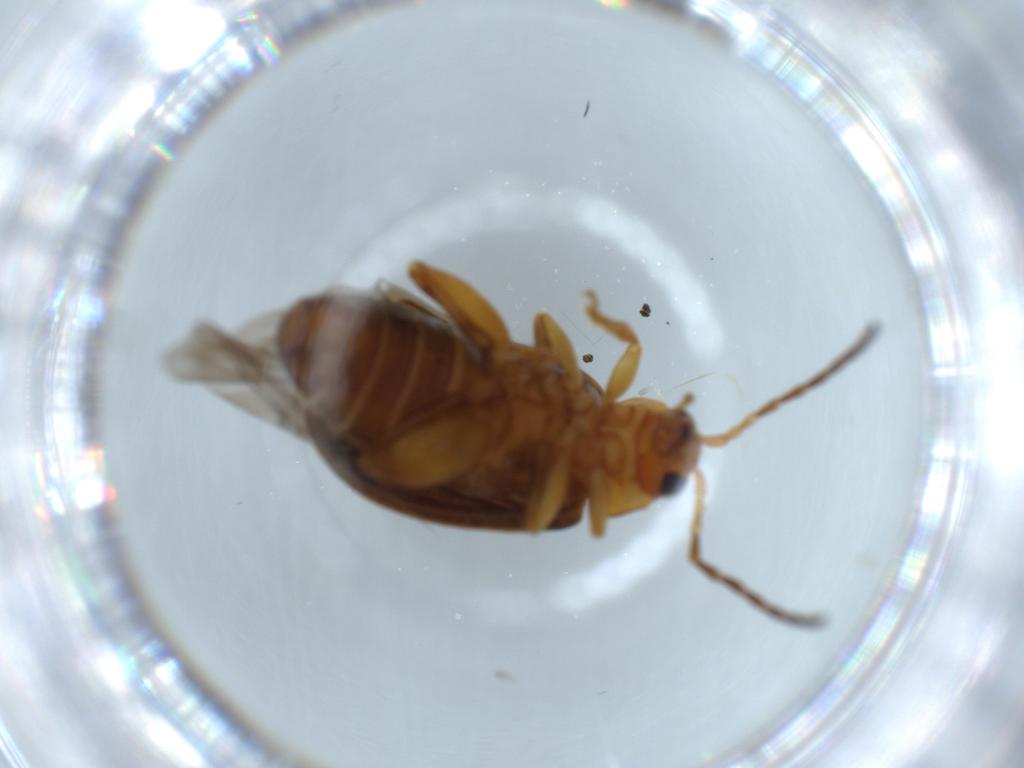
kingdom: Animalia
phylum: Arthropoda
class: Insecta
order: Coleoptera
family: Chrysomelidae
